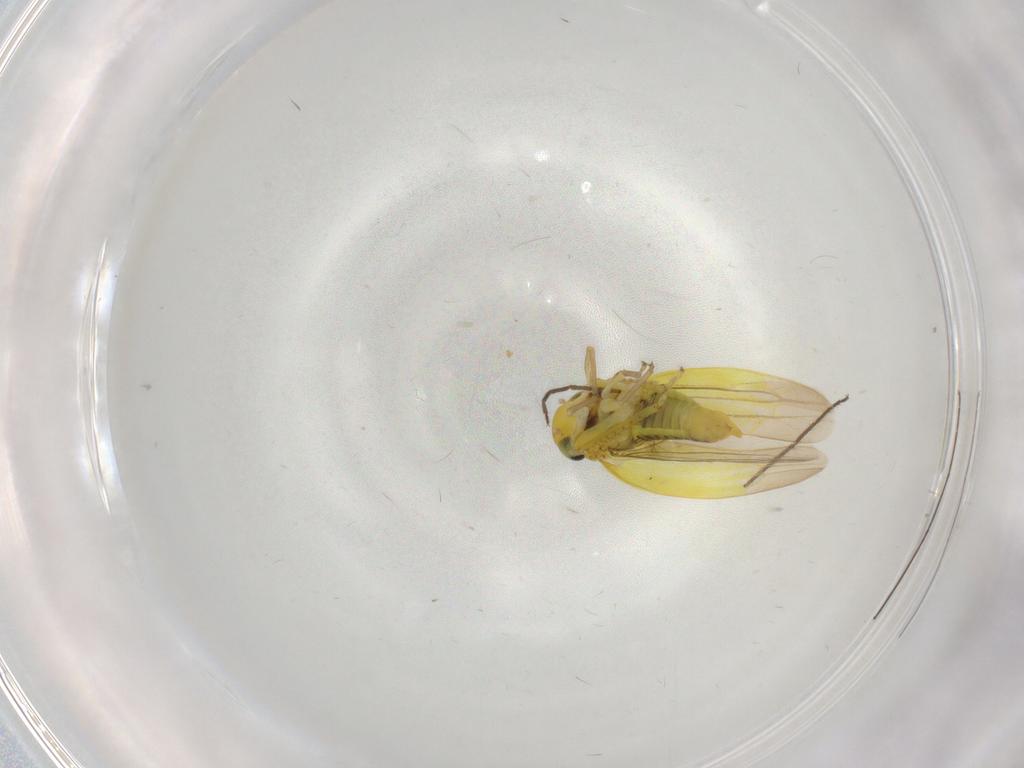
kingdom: Animalia
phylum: Arthropoda
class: Insecta
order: Hemiptera
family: Cicadellidae
